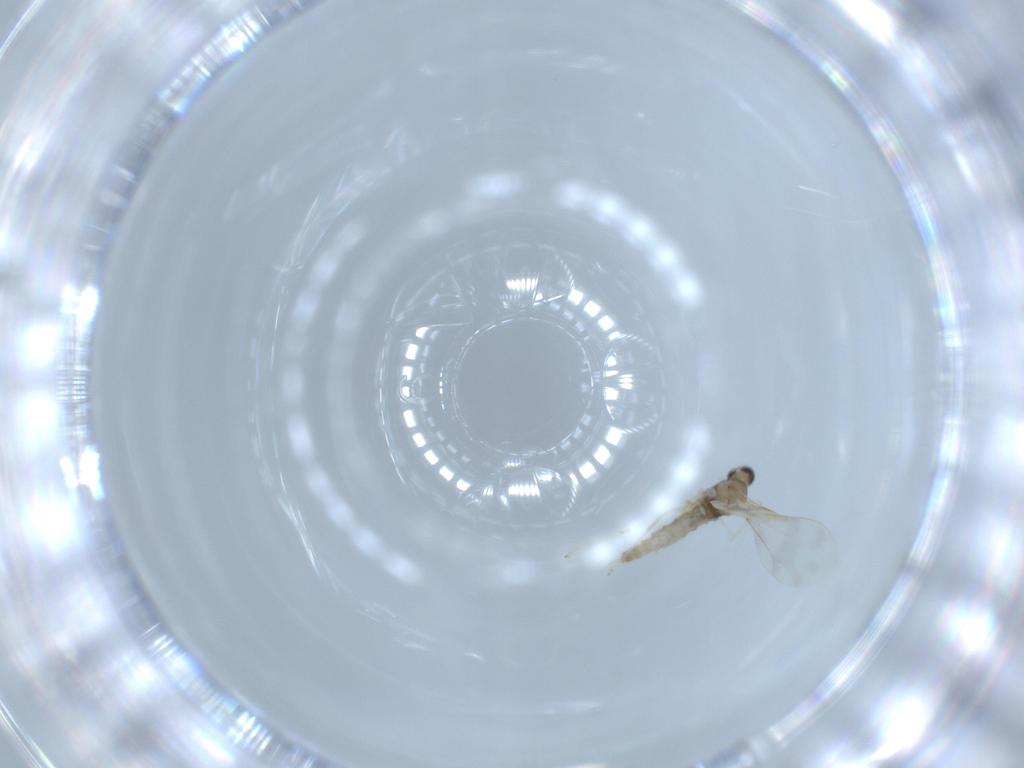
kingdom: Animalia
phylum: Arthropoda
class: Insecta
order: Diptera
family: Cecidomyiidae
